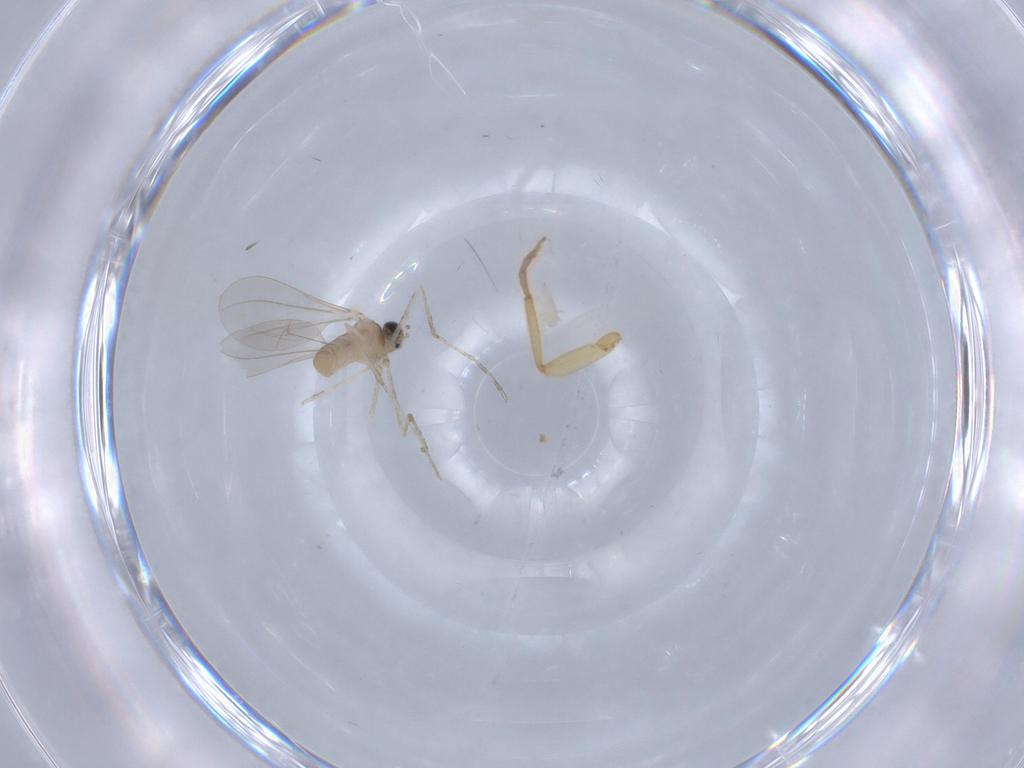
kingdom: Animalia
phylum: Arthropoda
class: Insecta
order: Diptera
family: Cecidomyiidae
